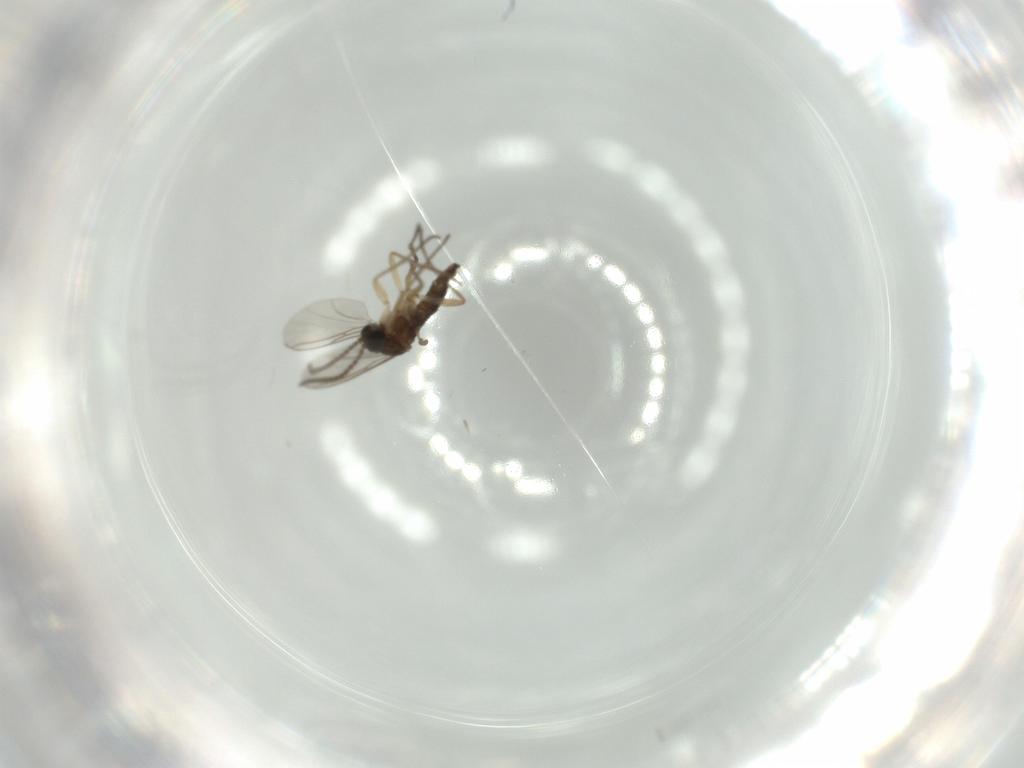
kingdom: Animalia
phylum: Arthropoda
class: Insecta
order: Diptera
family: Sciaridae
